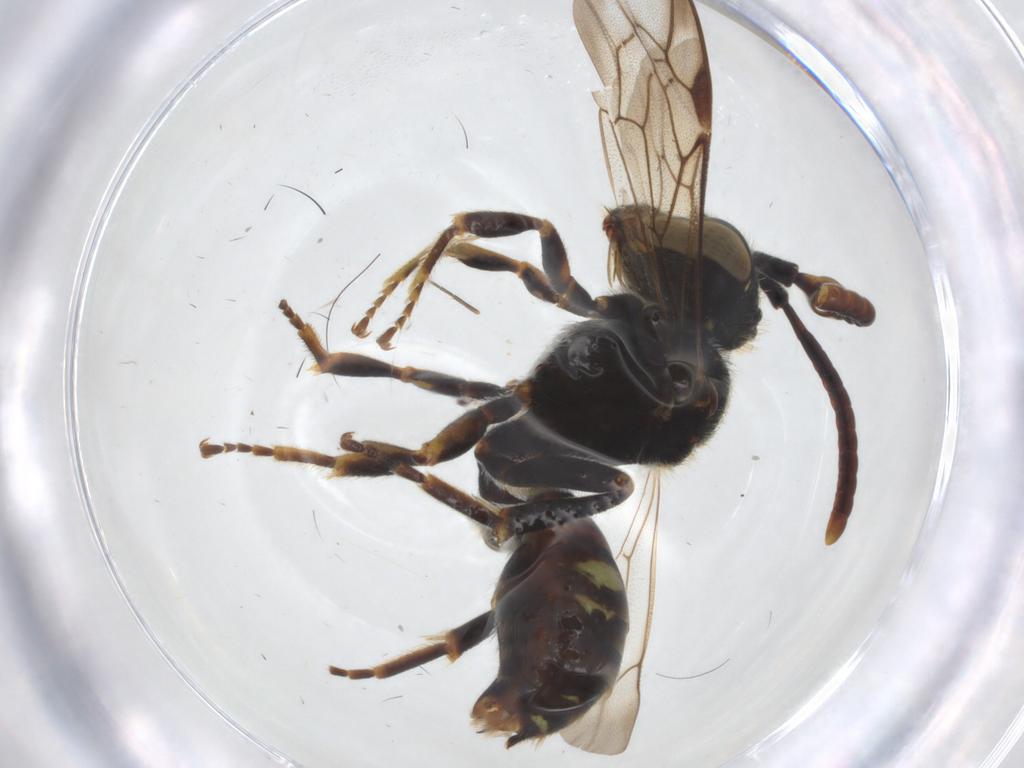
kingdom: Animalia
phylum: Arthropoda
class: Insecta
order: Hymenoptera
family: Apidae
